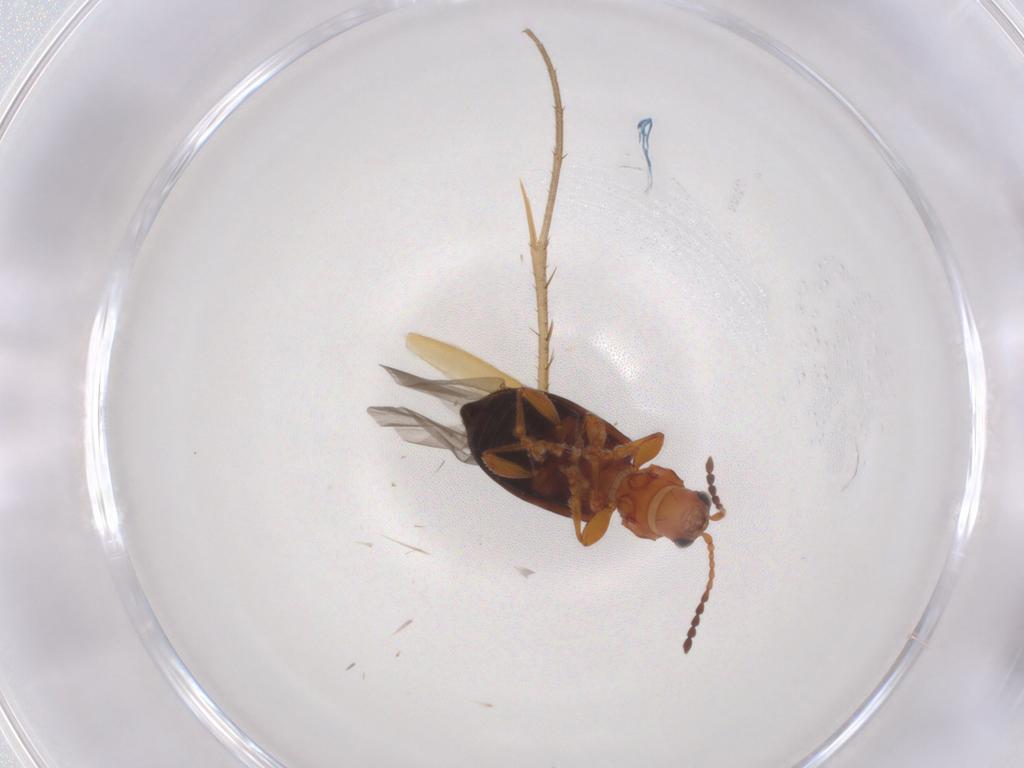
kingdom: Animalia
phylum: Arthropoda
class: Insecta
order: Coleoptera
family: Chrysomelidae
